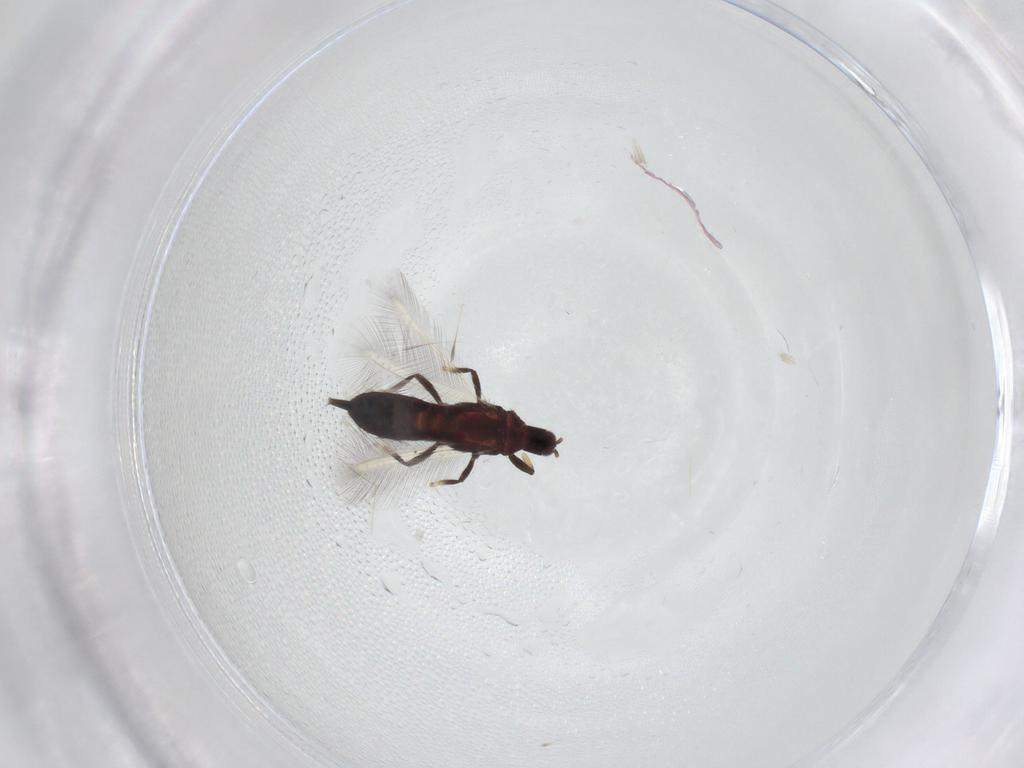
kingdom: Animalia
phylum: Arthropoda
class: Insecta
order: Thysanoptera
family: Phlaeothripidae
